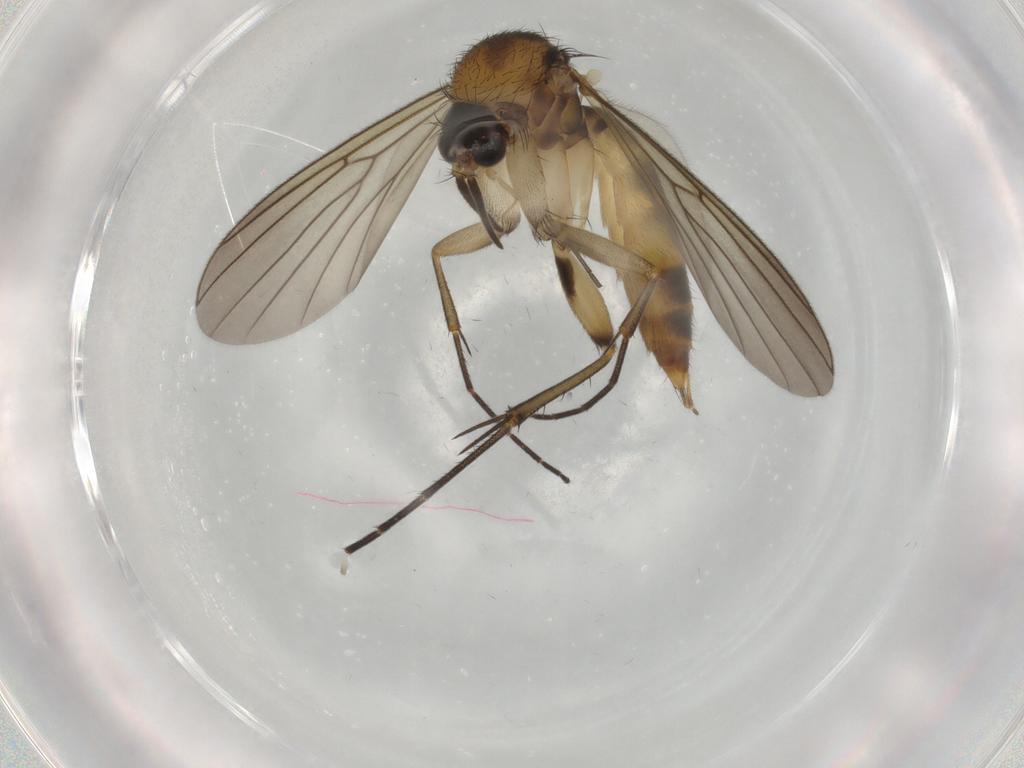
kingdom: Animalia
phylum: Arthropoda
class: Insecta
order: Diptera
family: Mycetophilidae
